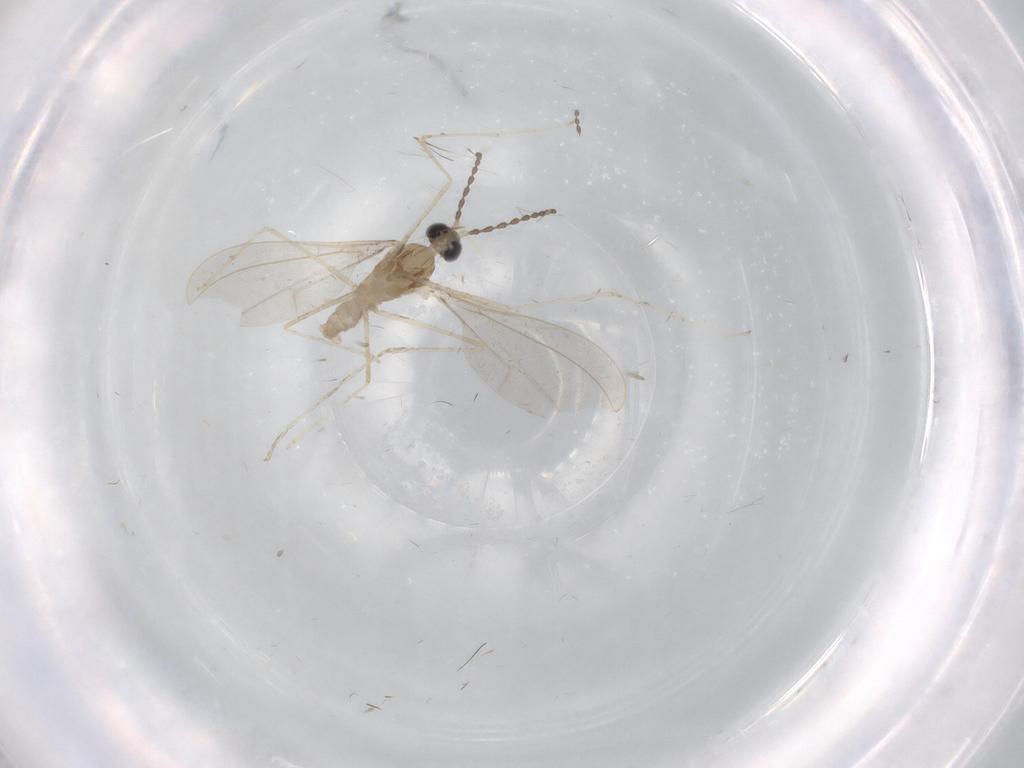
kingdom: Animalia
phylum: Arthropoda
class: Insecta
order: Diptera
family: Cecidomyiidae
